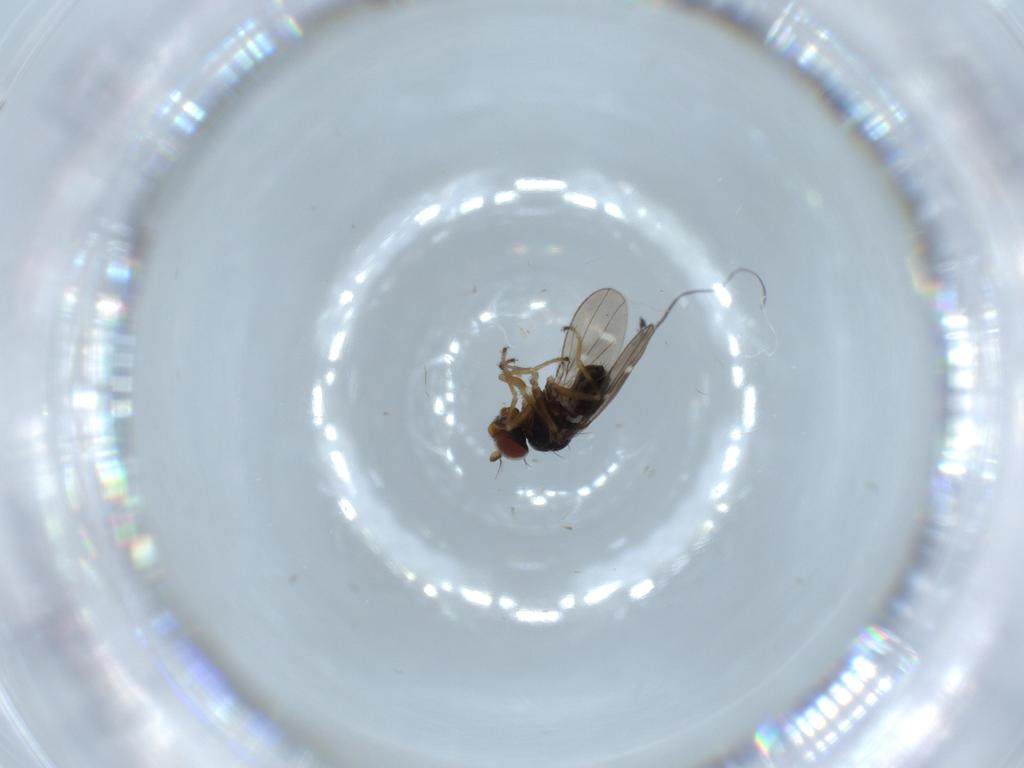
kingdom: Animalia
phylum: Arthropoda
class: Insecta
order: Diptera
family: Ephydridae
